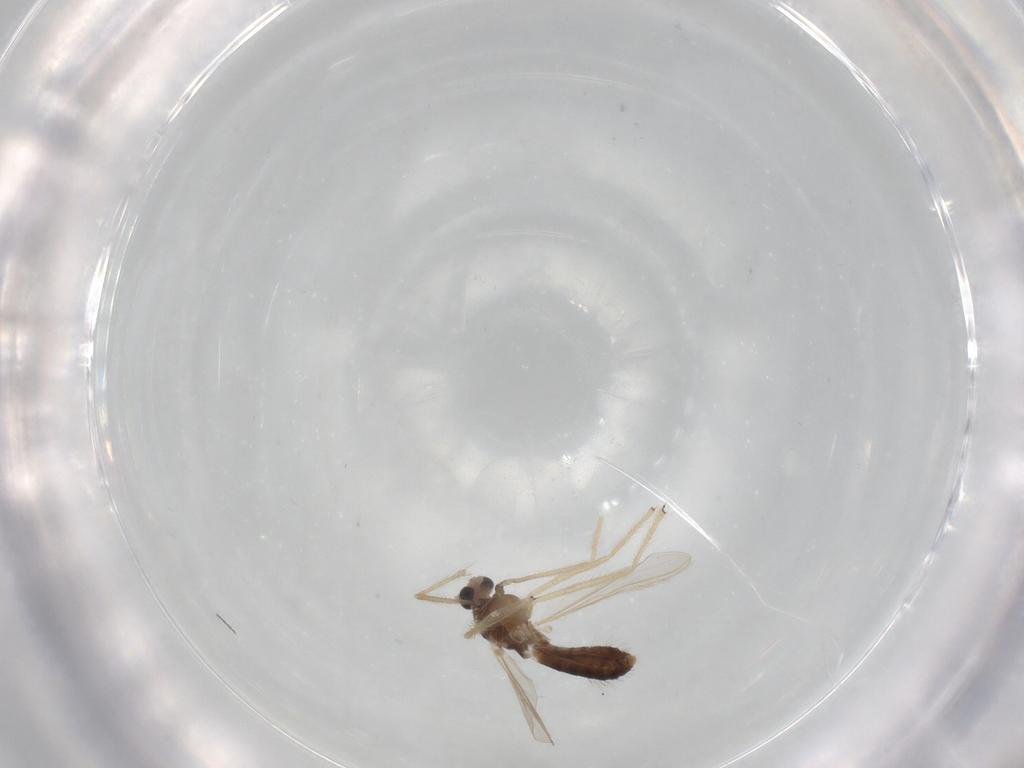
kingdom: Animalia
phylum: Arthropoda
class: Insecta
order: Diptera
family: Chironomidae
